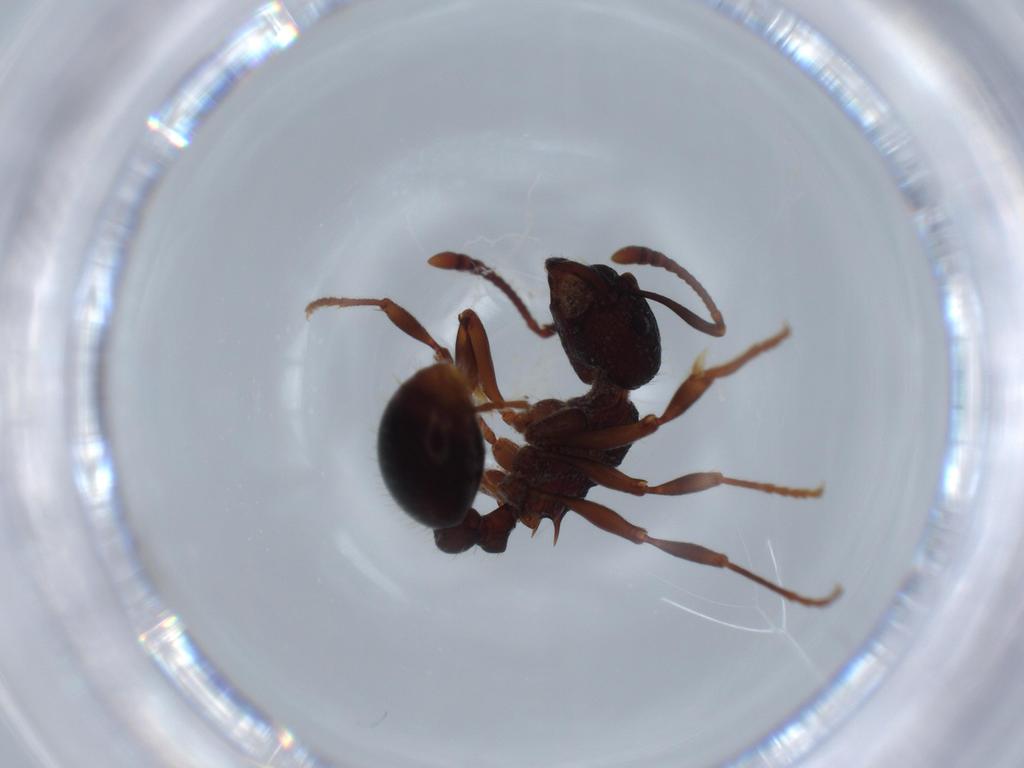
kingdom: Animalia
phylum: Arthropoda
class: Insecta
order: Hymenoptera
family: Formicidae
